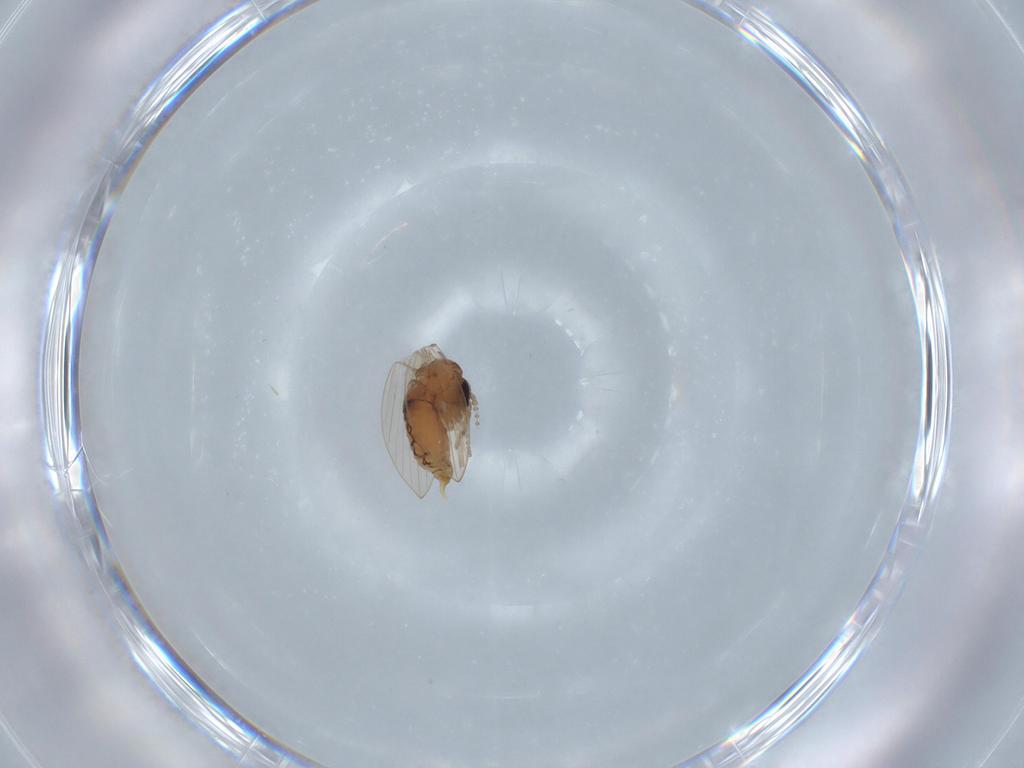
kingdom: Animalia
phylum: Arthropoda
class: Insecta
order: Diptera
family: Psychodidae
